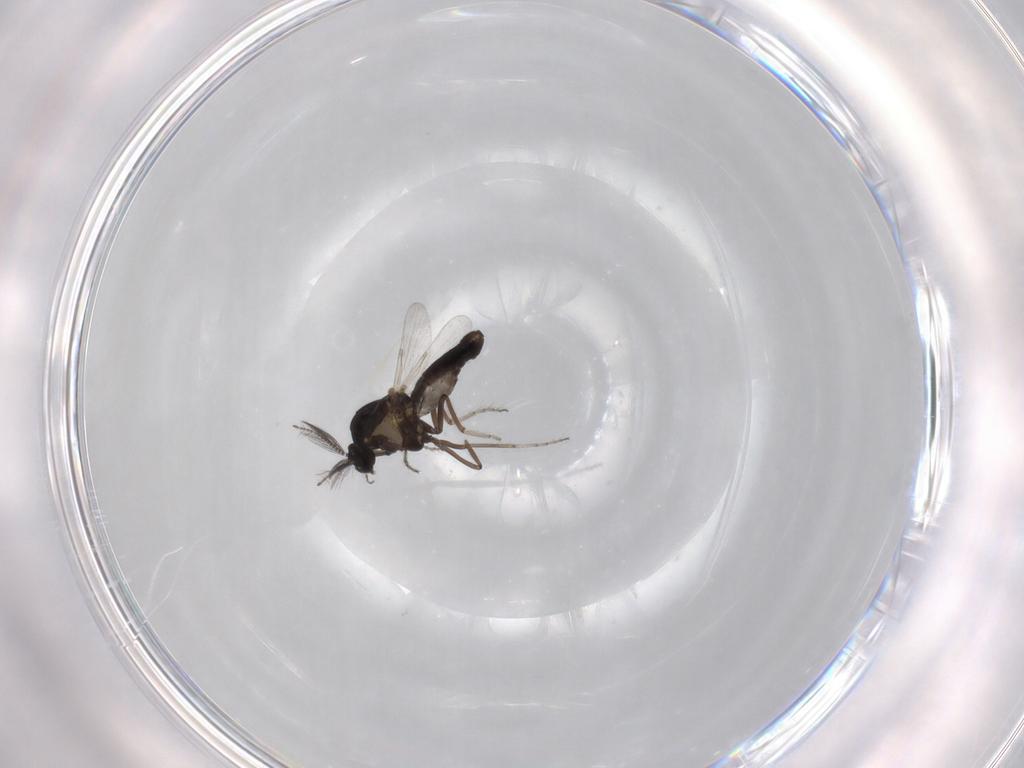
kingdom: Animalia
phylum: Arthropoda
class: Insecta
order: Diptera
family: Ceratopogonidae
